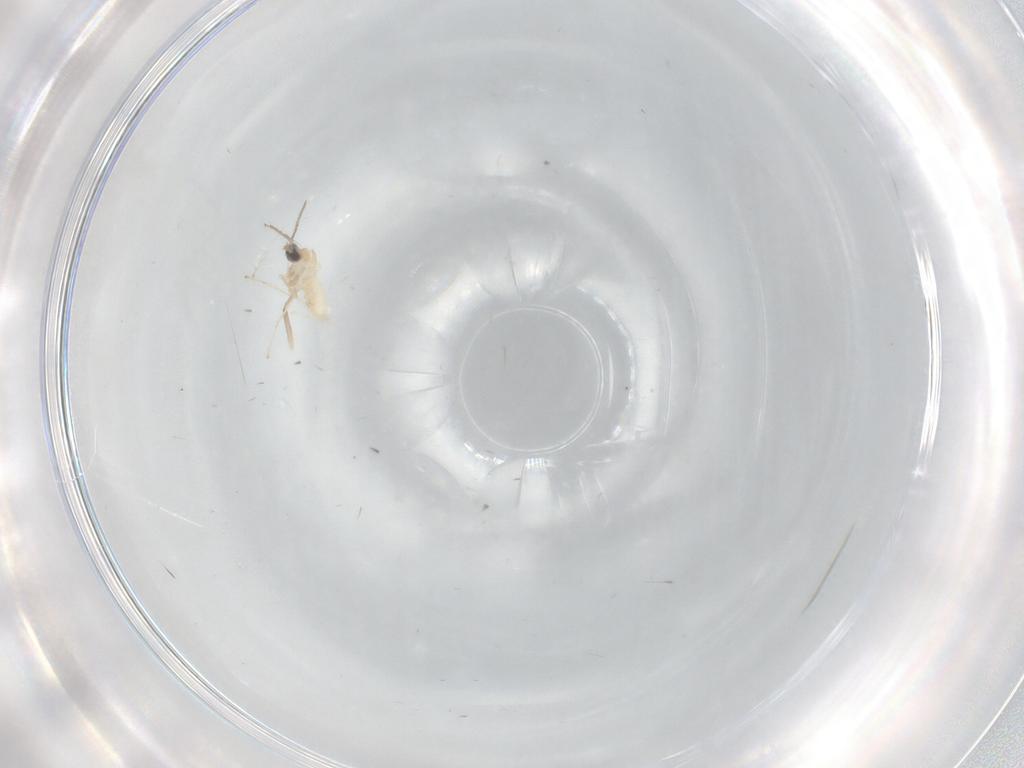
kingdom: Animalia
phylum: Arthropoda
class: Insecta
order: Diptera
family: Cecidomyiidae
